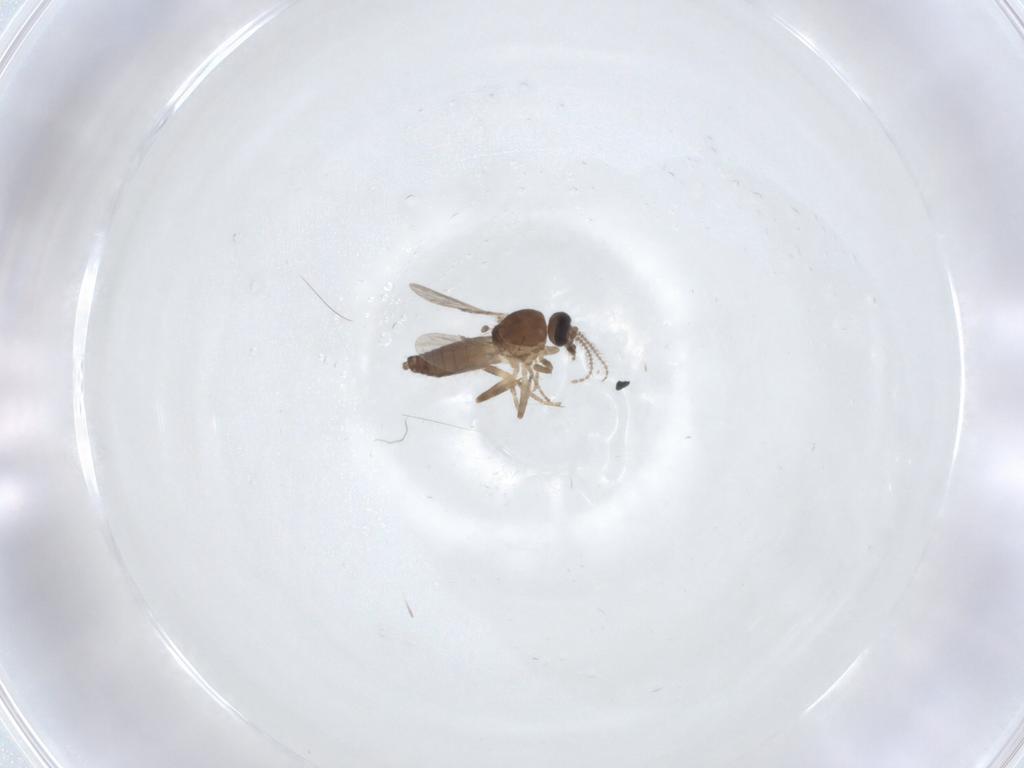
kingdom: Animalia
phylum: Arthropoda
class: Insecta
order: Diptera
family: Ceratopogonidae
